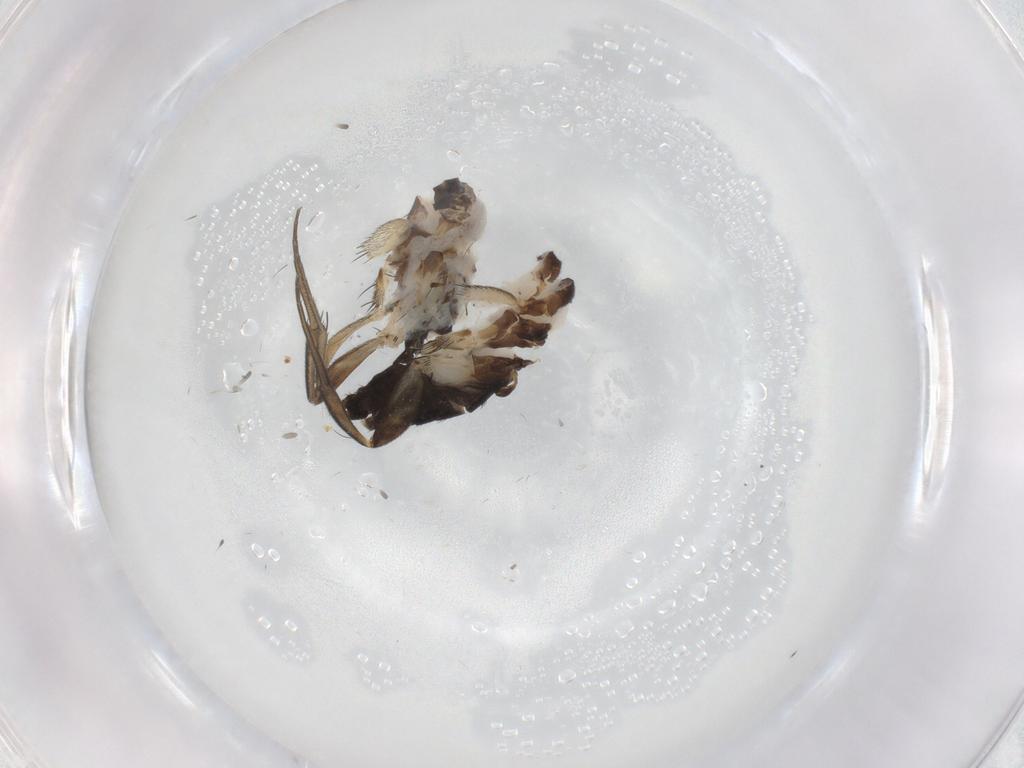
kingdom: Animalia
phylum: Arthropoda
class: Insecta
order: Diptera
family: Phoridae
